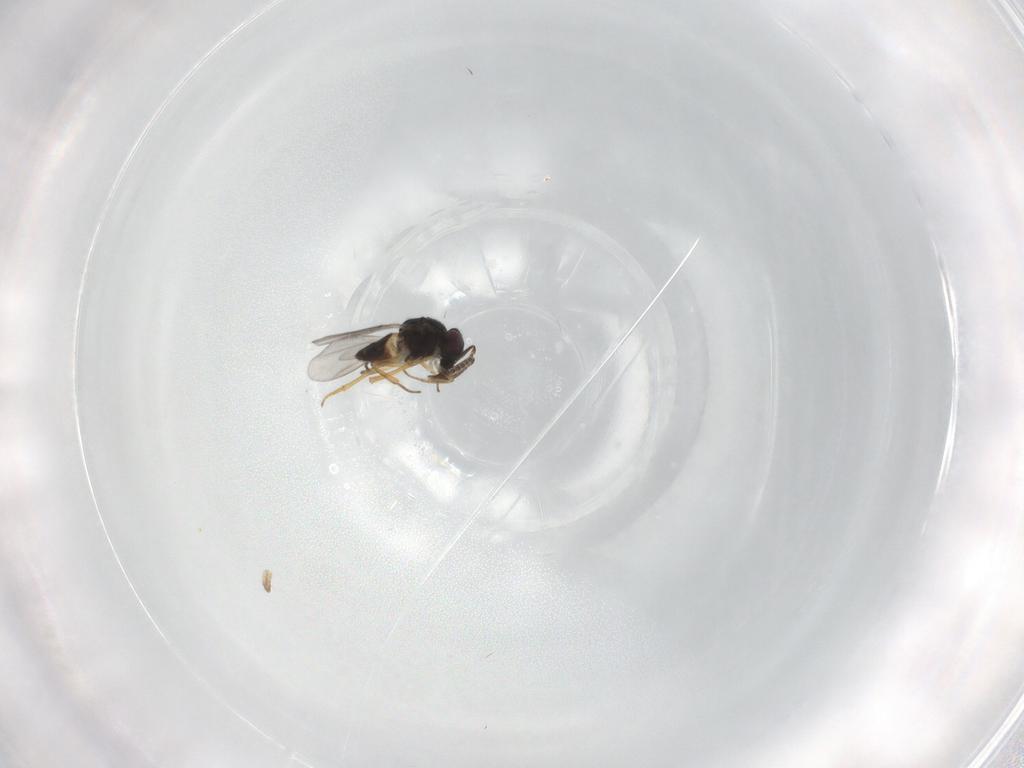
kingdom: Animalia
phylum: Arthropoda
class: Insecta
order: Hymenoptera
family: Encyrtidae
